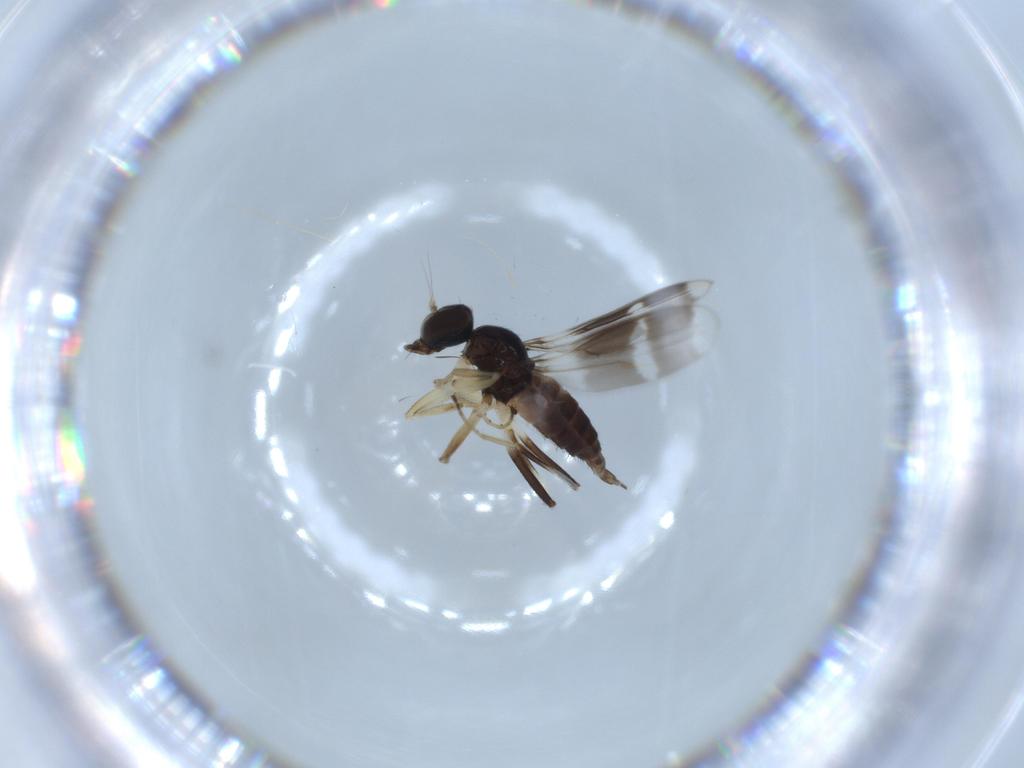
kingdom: Animalia
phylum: Arthropoda
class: Insecta
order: Diptera
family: Hybotidae
